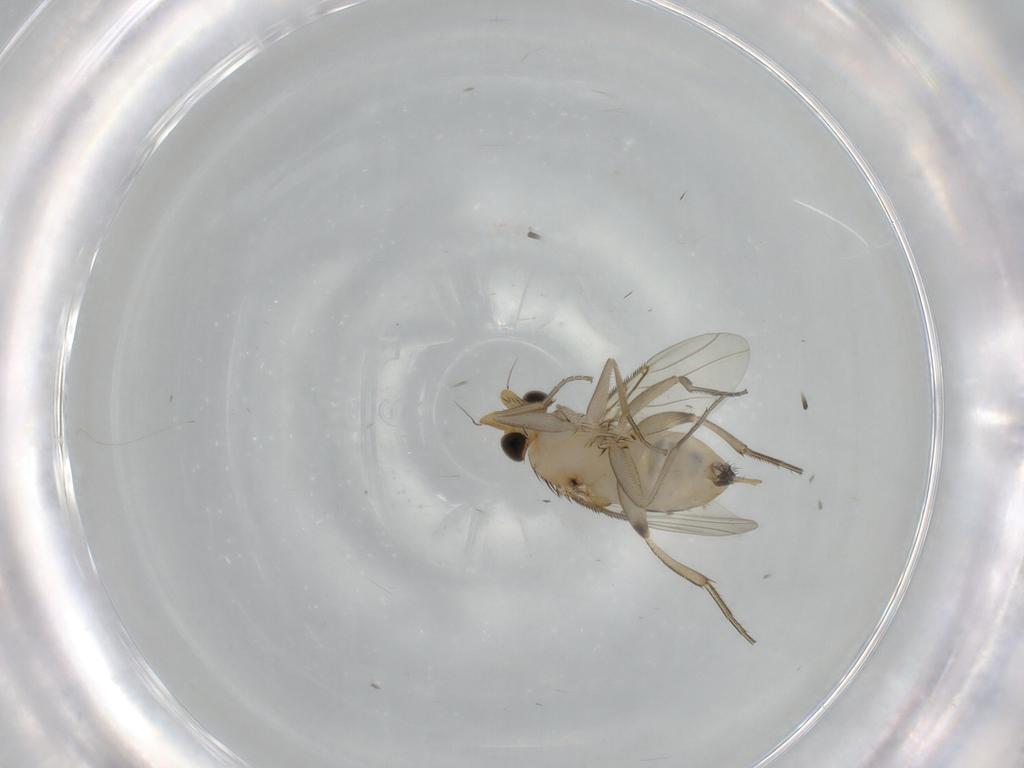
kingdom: Animalia
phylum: Arthropoda
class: Insecta
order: Diptera
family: Phoridae
